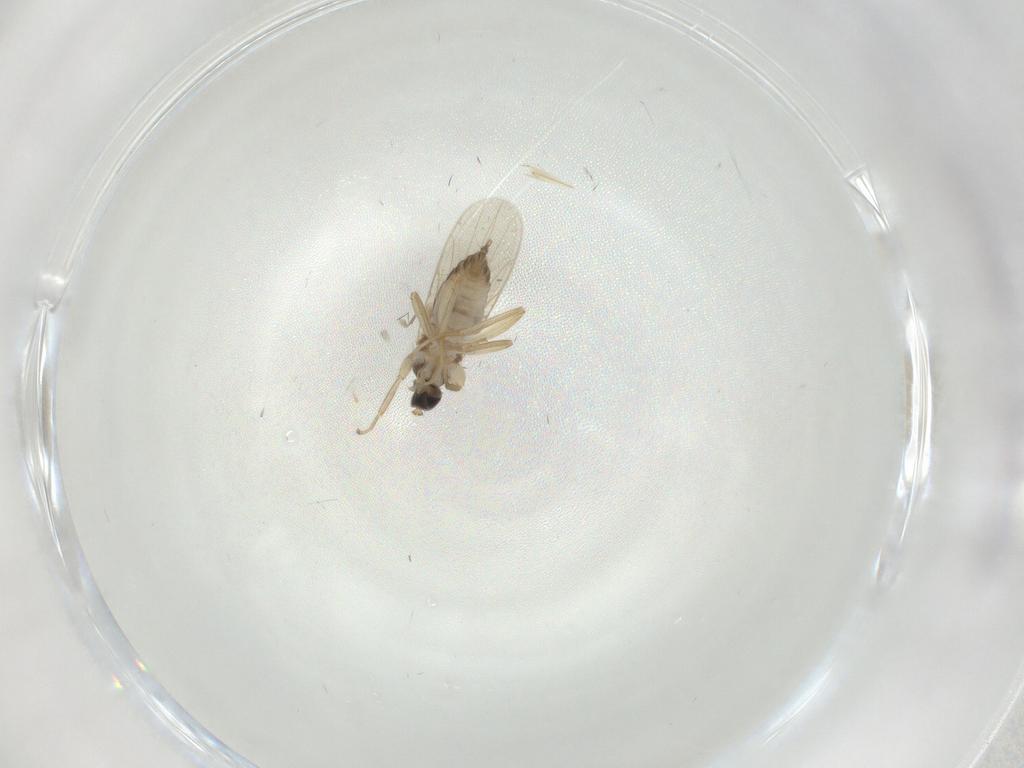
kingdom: Animalia
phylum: Arthropoda
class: Insecta
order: Diptera
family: Hybotidae
